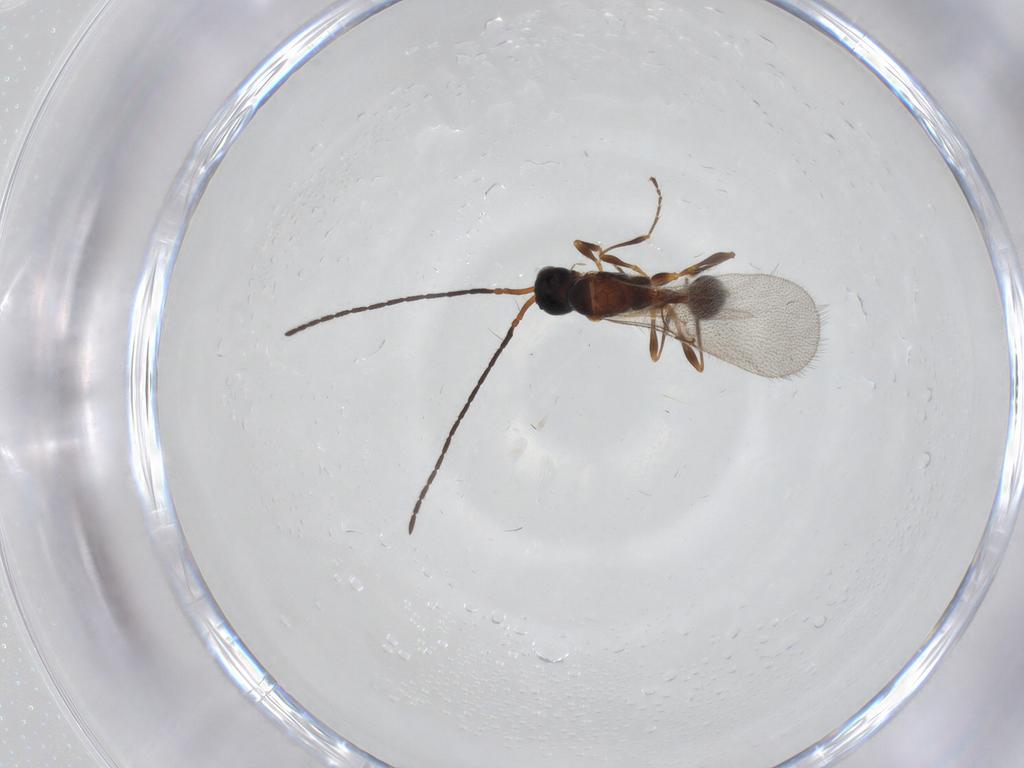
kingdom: Animalia
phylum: Arthropoda
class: Insecta
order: Hymenoptera
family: Diapriidae
